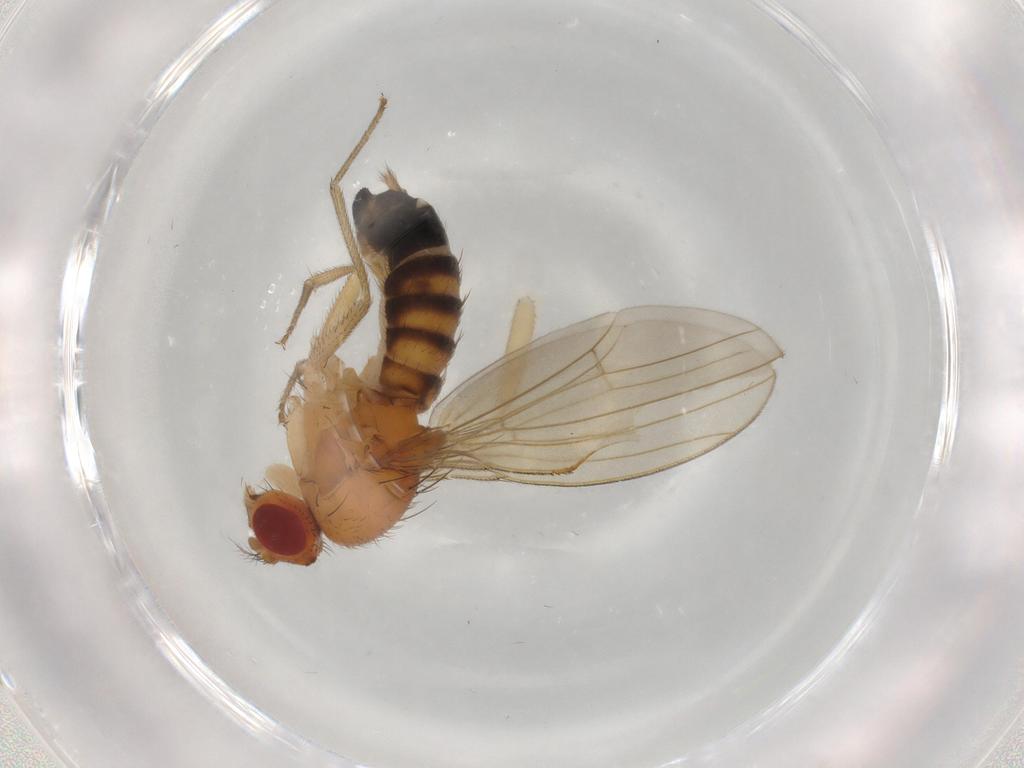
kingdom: Animalia
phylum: Arthropoda
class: Insecta
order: Diptera
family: Drosophilidae
